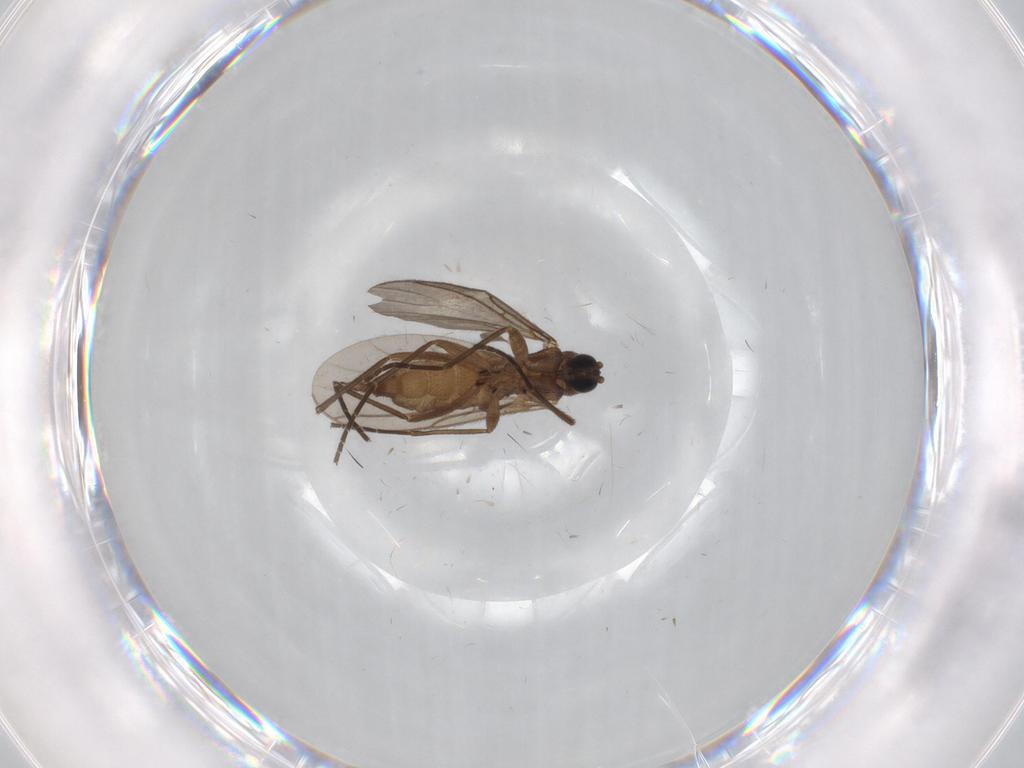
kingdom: Animalia
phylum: Arthropoda
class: Insecta
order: Diptera
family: Sciaridae
